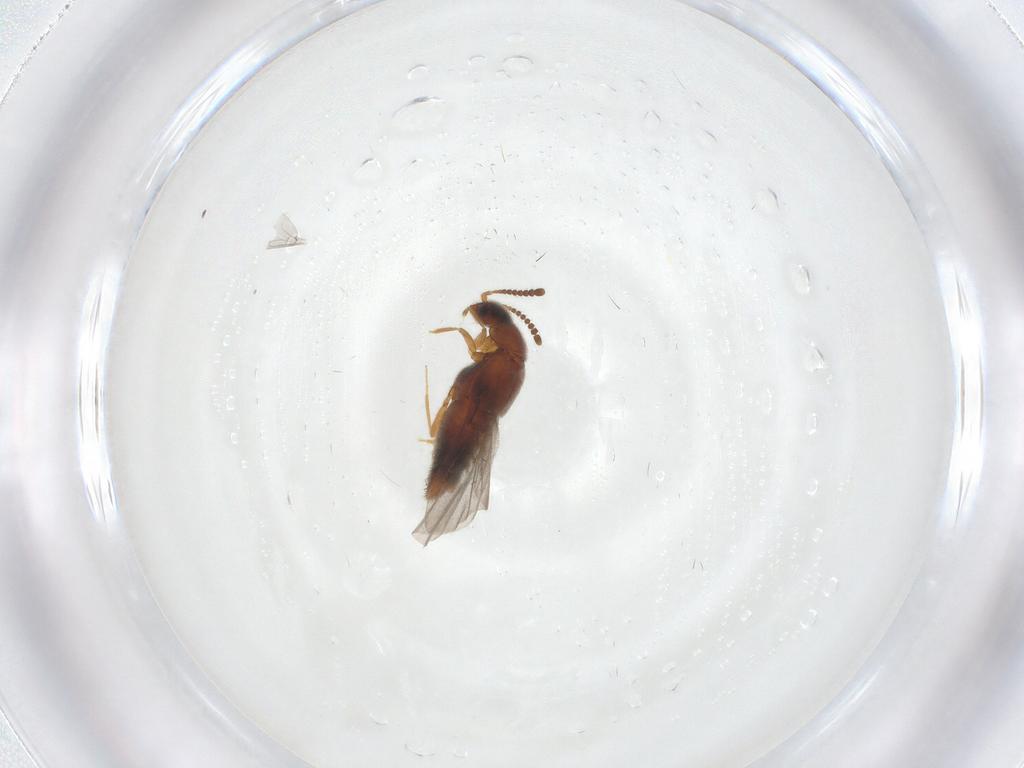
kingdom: Animalia
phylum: Arthropoda
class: Insecta
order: Coleoptera
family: Staphylinidae
